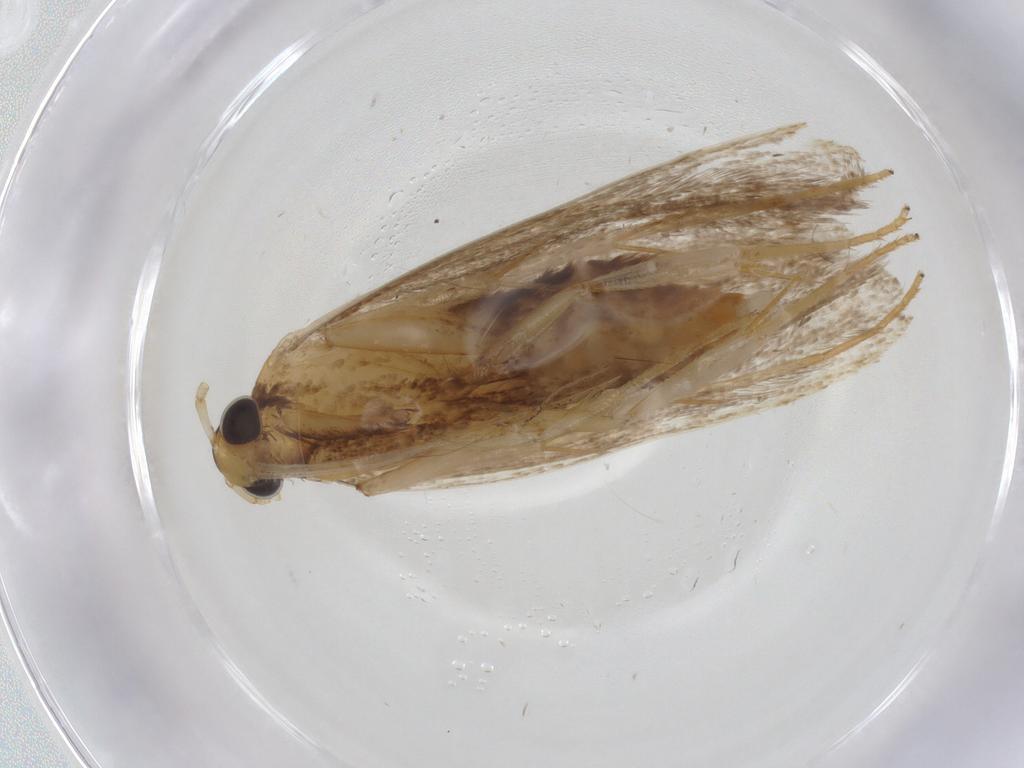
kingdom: Animalia
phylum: Arthropoda
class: Insecta
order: Lepidoptera
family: Lecithoceridae
